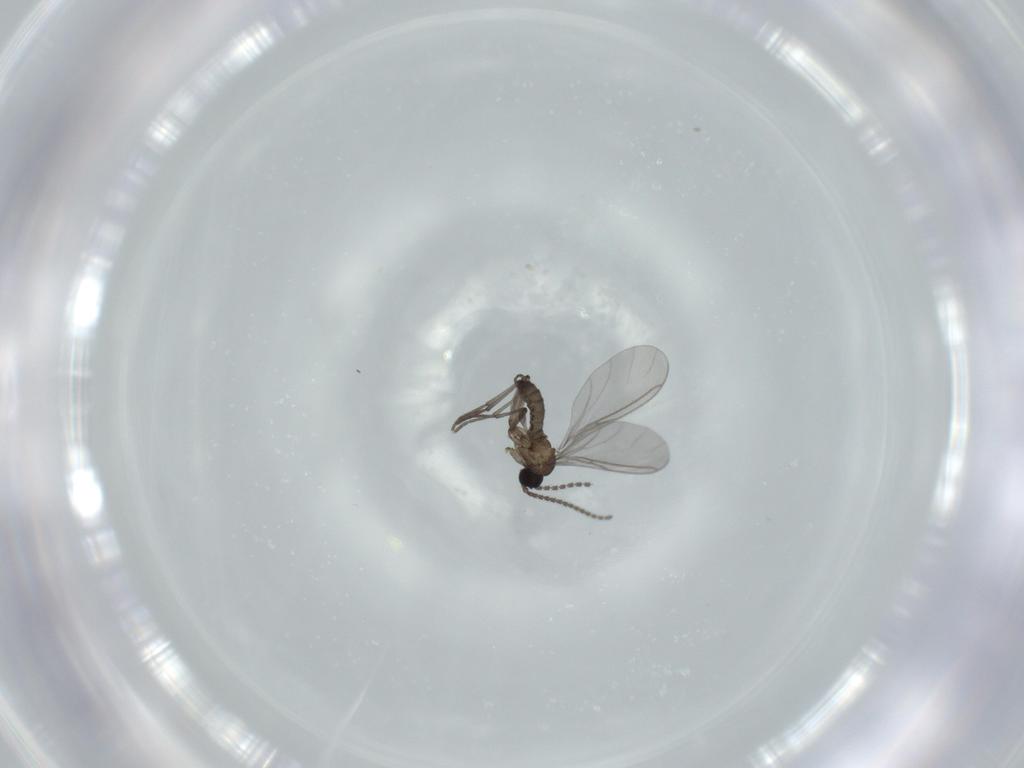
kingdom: Animalia
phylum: Arthropoda
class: Insecta
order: Diptera
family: Sciaridae
